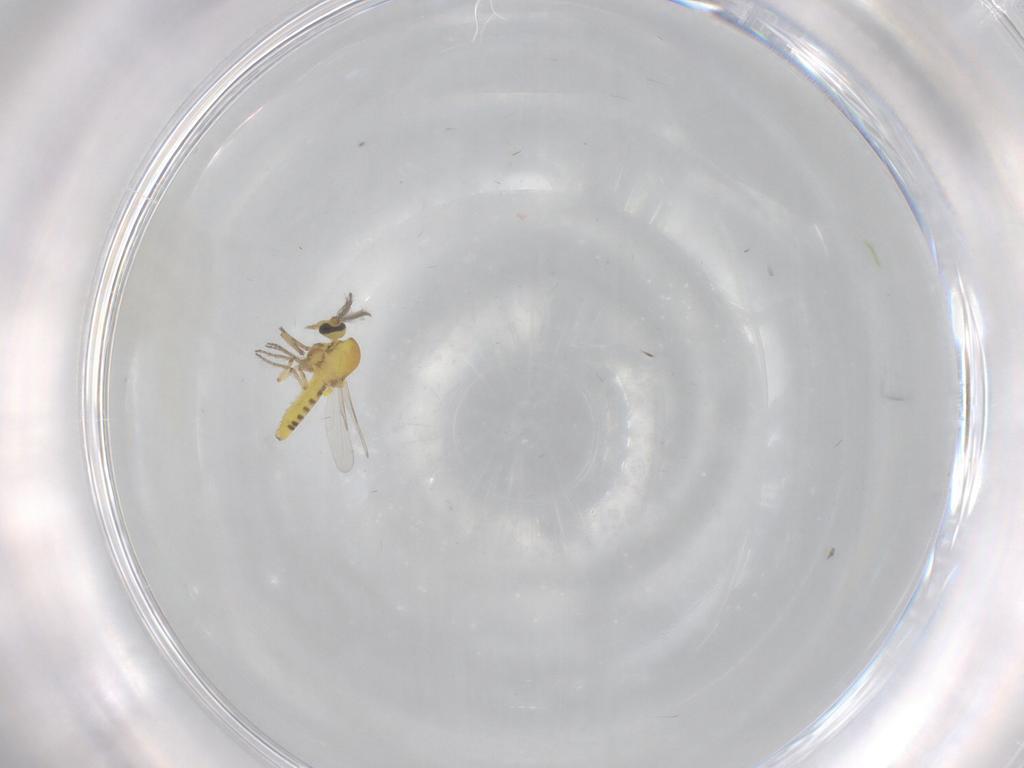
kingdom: Animalia
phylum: Arthropoda
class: Insecta
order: Diptera
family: Ceratopogonidae
